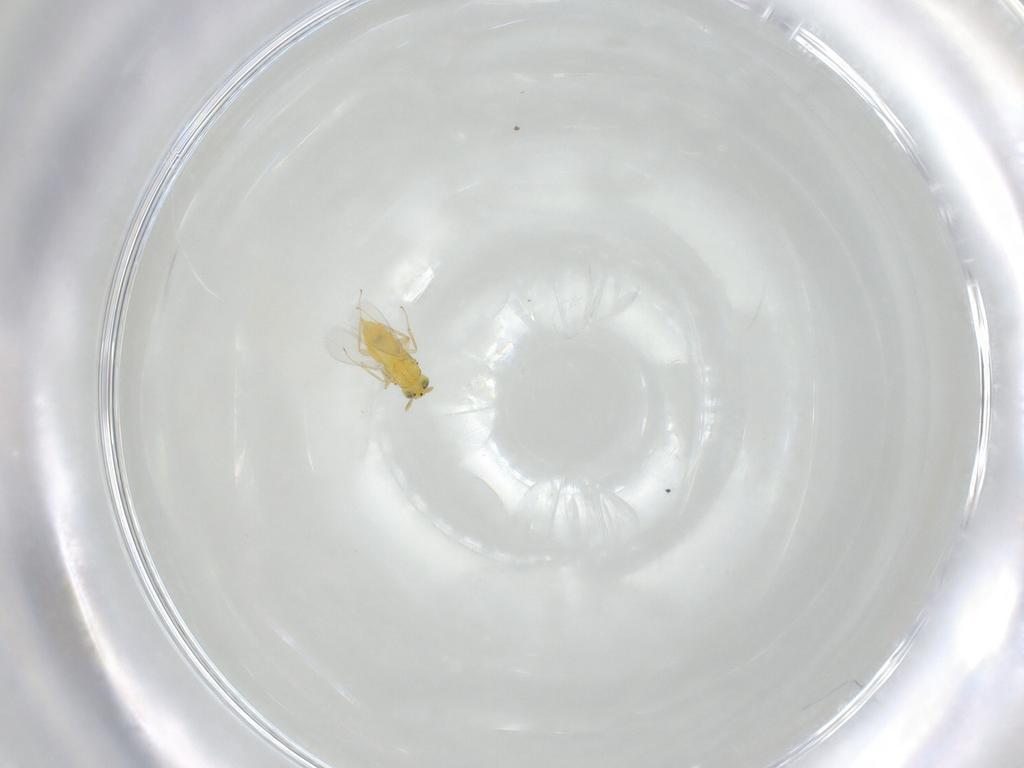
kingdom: Animalia
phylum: Arthropoda
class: Insecta
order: Hymenoptera
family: Aphelinidae
